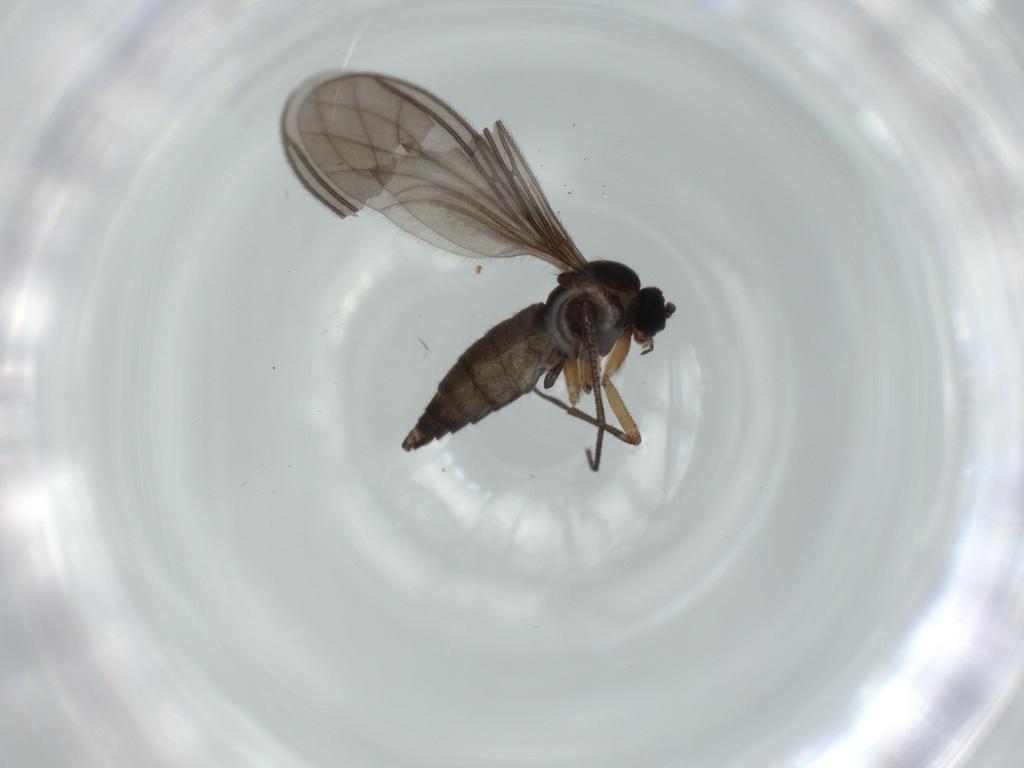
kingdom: Animalia
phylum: Arthropoda
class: Insecta
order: Diptera
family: Sciaridae
